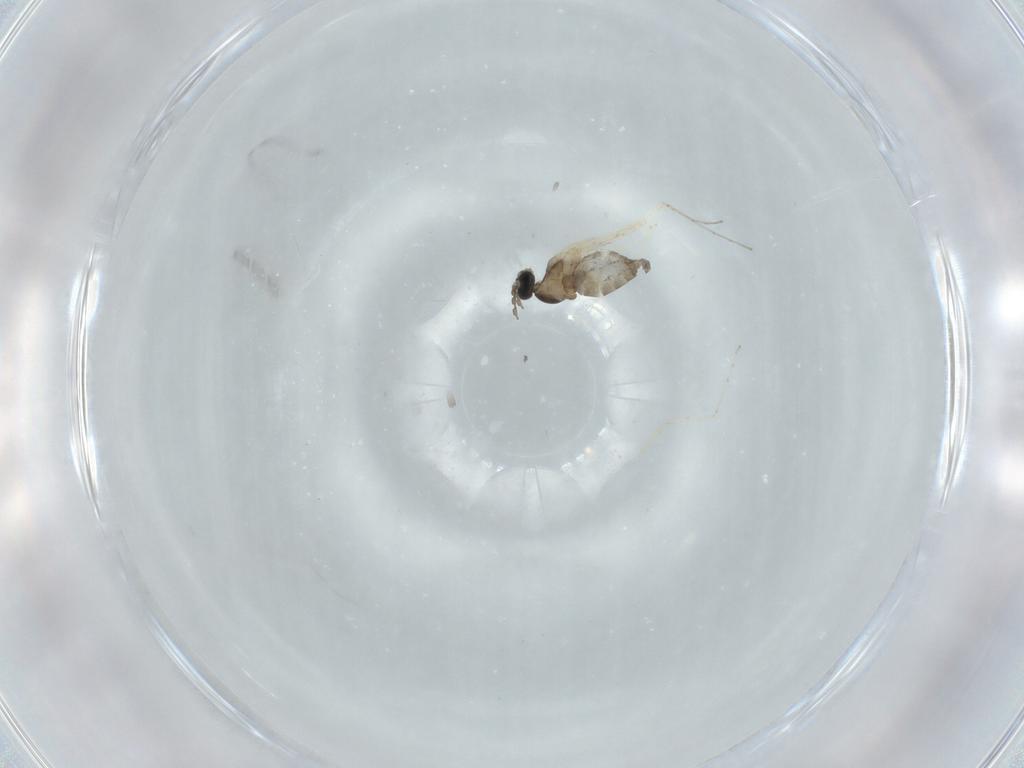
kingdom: Animalia
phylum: Arthropoda
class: Insecta
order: Diptera
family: Cecidomyiidae
